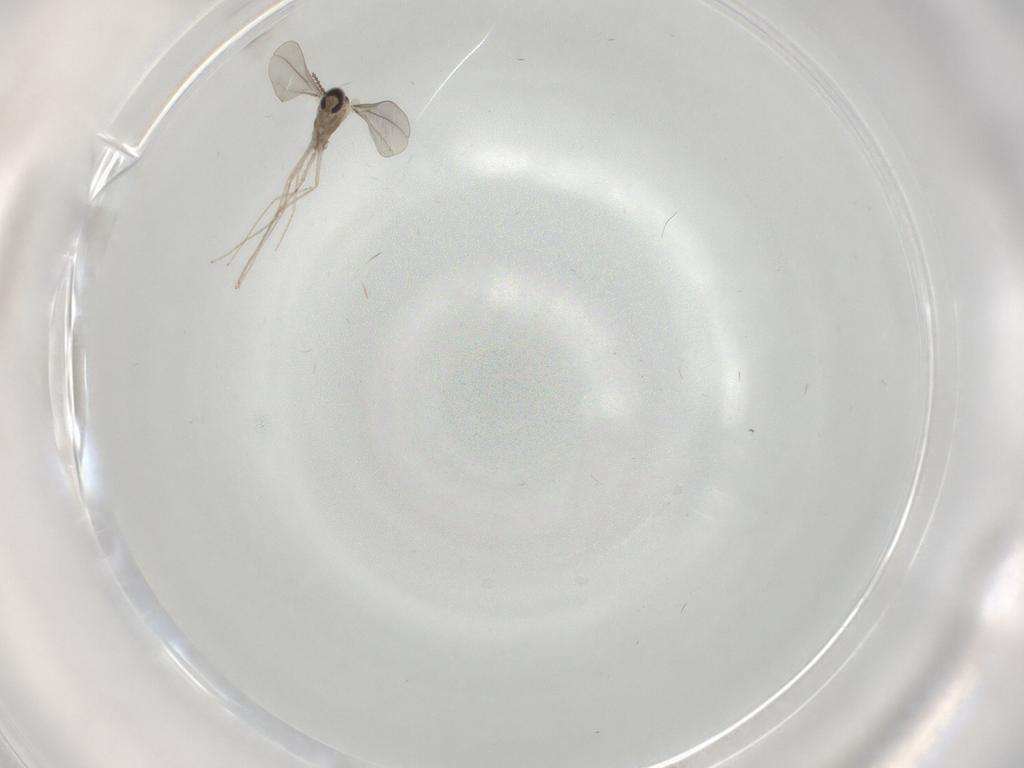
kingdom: Animalia
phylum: Arthropoda
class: Insecta
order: Diptera
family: Cecidomyiidae
